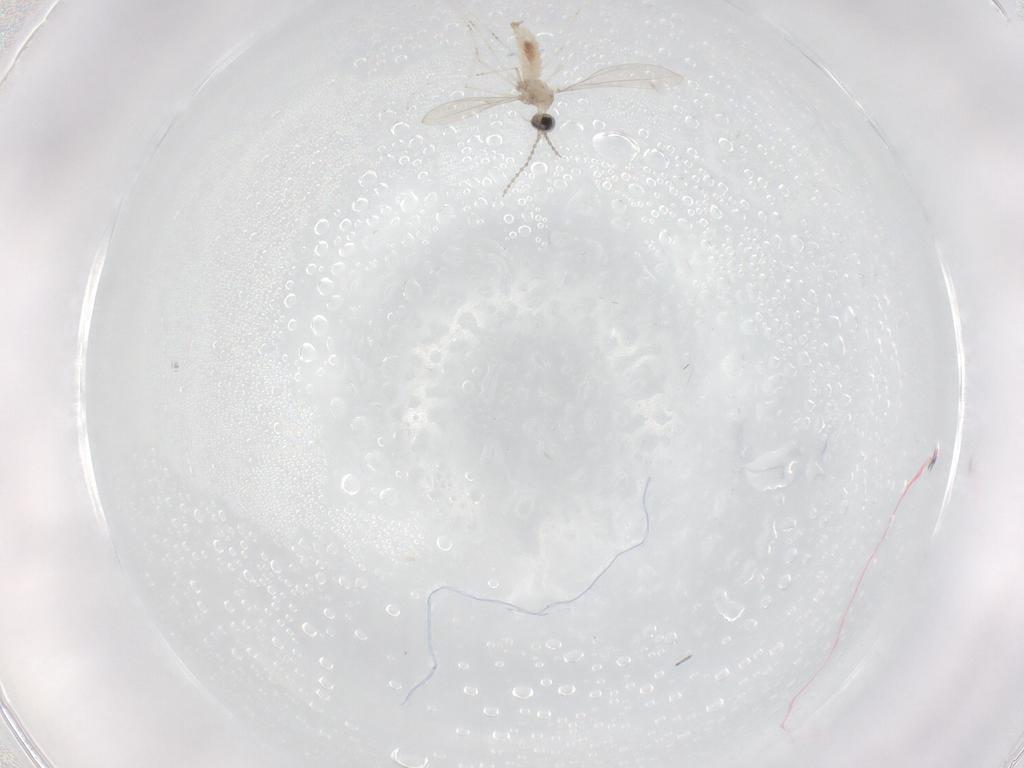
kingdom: Animalia
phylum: Arthropoda
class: Insecta
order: Diptera
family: Cecidomyiidae
